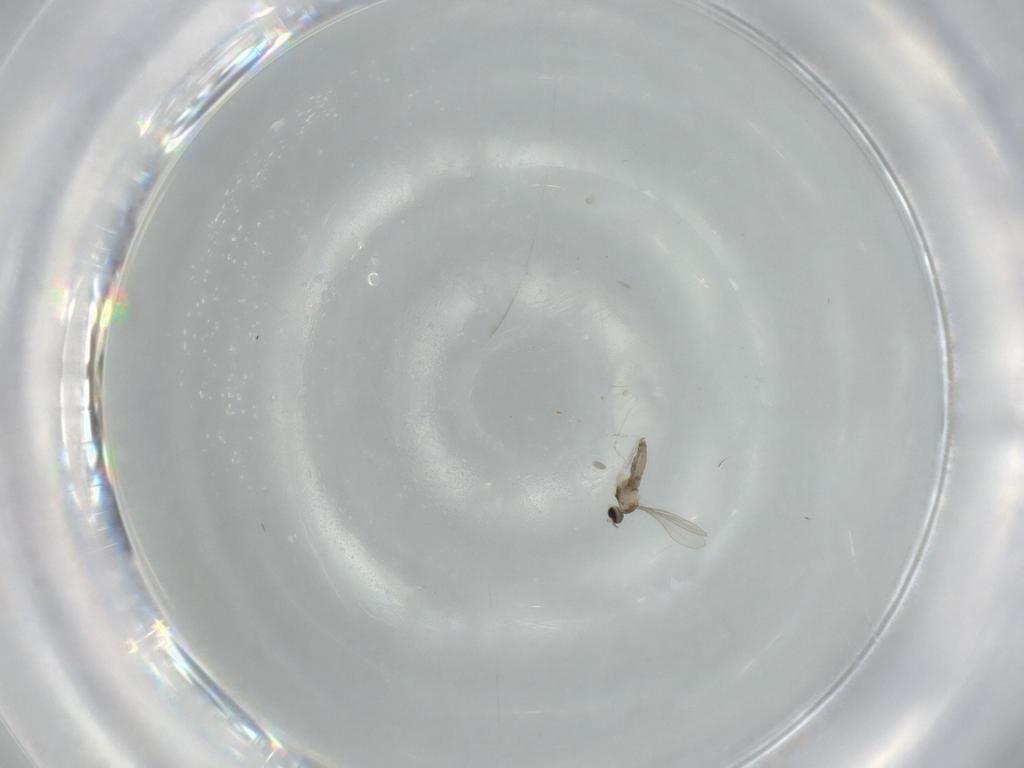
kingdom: Animalia
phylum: Arthropoda
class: Insecta
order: Diptera
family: Cecidomyiidae
